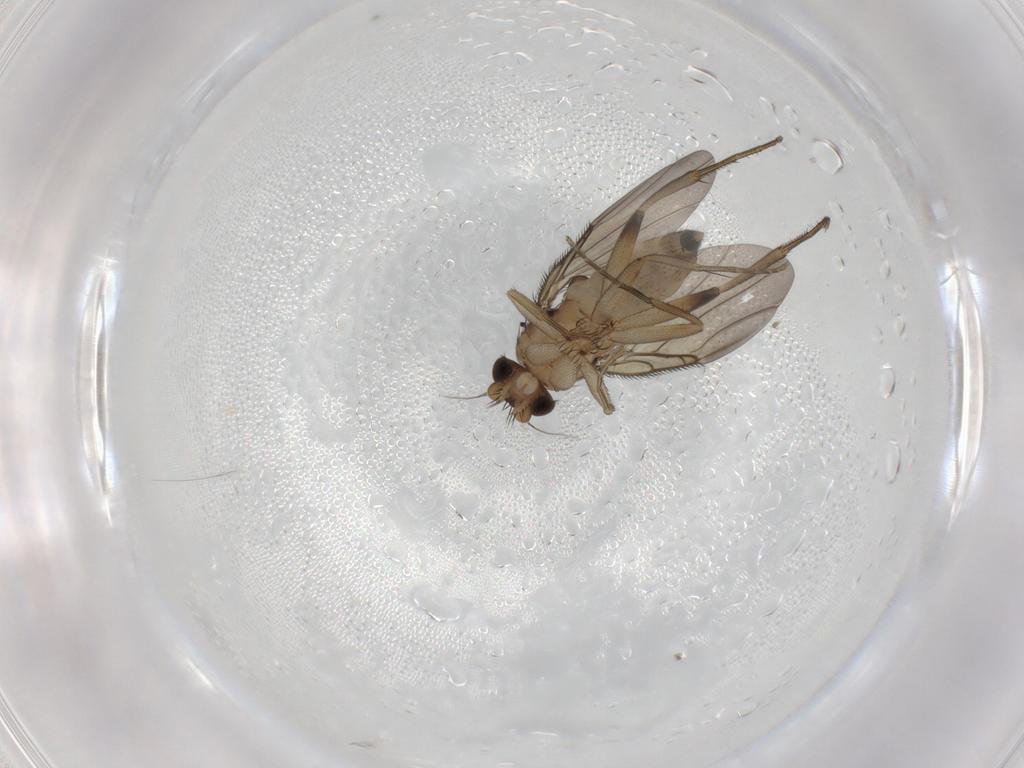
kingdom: Animalia
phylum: Arthropoda
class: Insecta
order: Diptera
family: Phoridae
